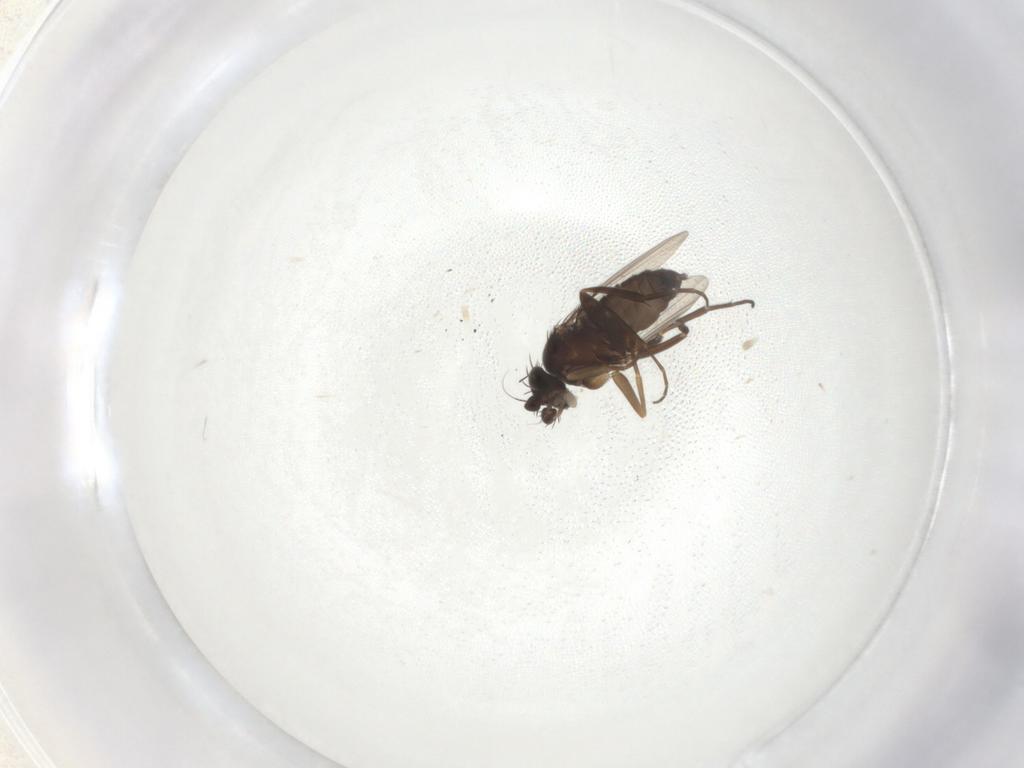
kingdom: Animalia
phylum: Arthropoda
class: Insecta
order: Diptera
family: Phoridae
